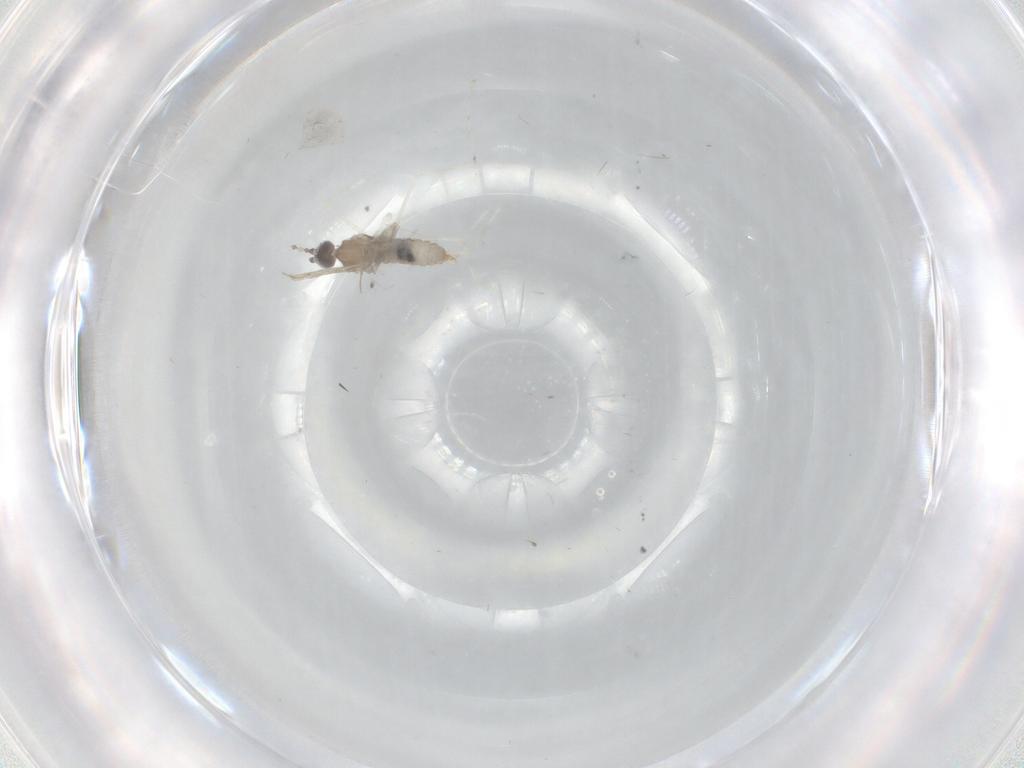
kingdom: Animalia
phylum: Arthropoda
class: Insecta
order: Diptera
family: Cecidomyiidae
